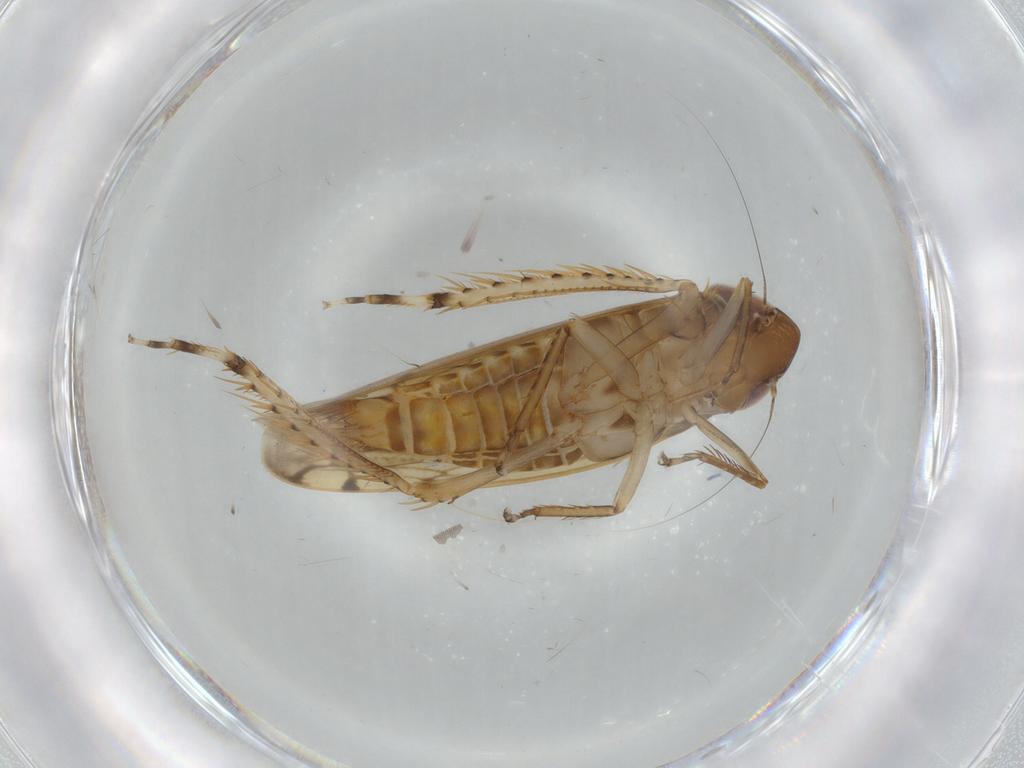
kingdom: Animalia
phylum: Arthropoda
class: Insecta
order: Hemiptera
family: Cicadellidae
